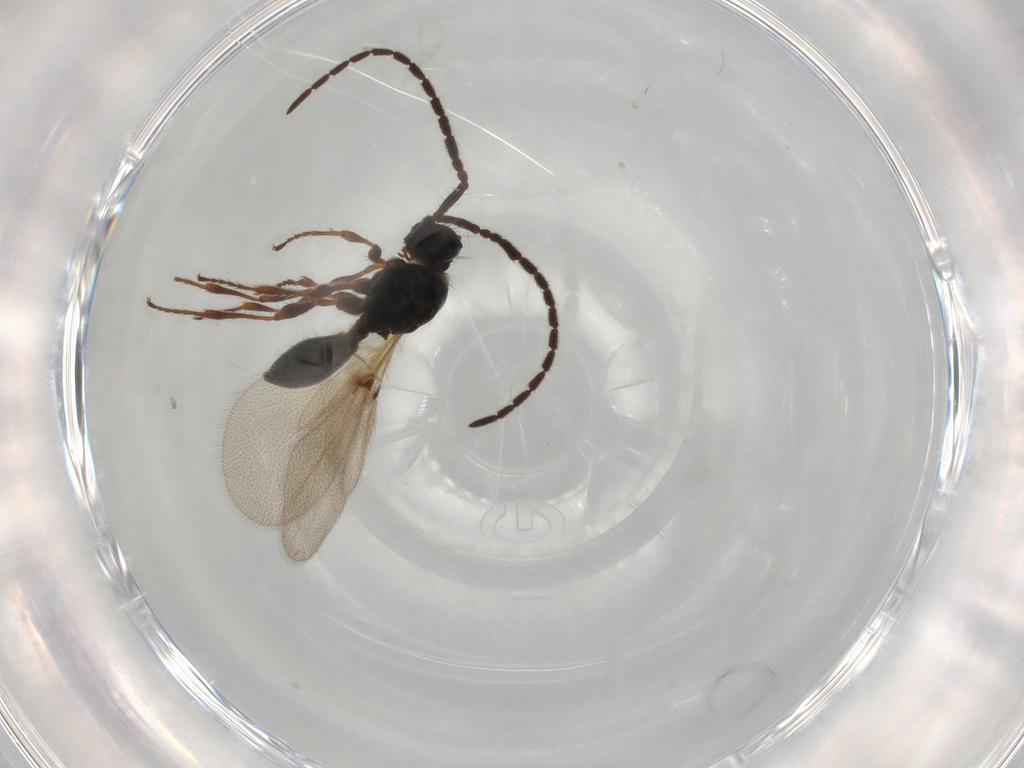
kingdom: Animalia
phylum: Arthropoda
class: Insecta
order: Hymenoptera
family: Diapriidae
